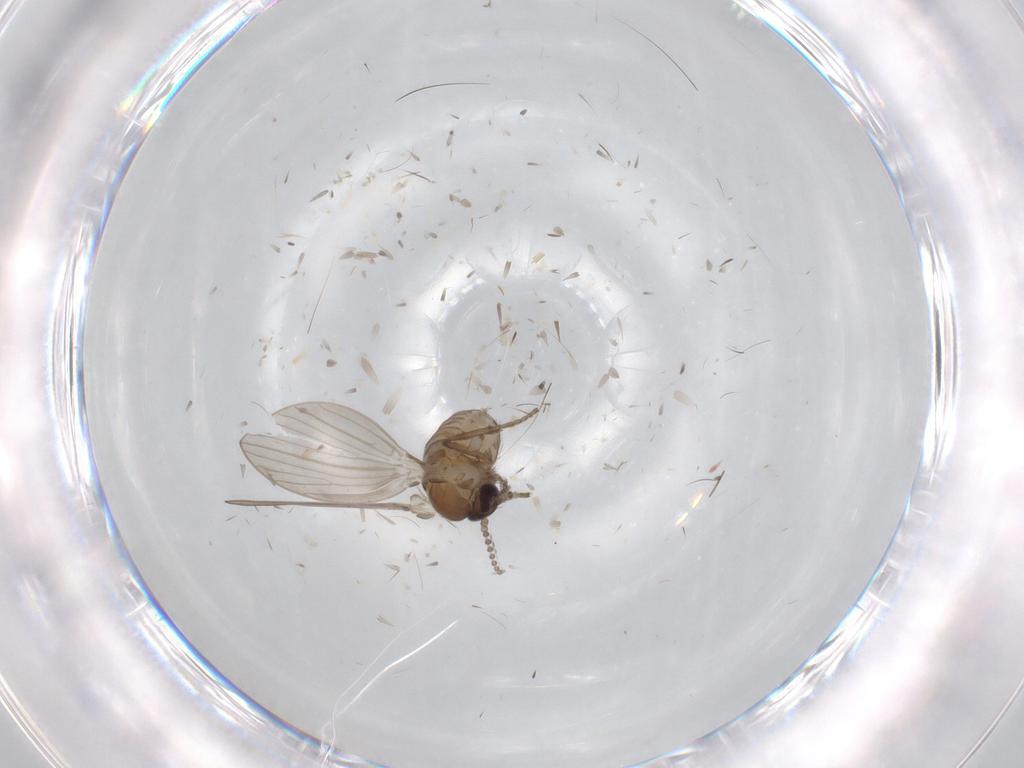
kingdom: Animalia
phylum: Arthropoda
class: Insecta
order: Diptera
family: Psychodidae
